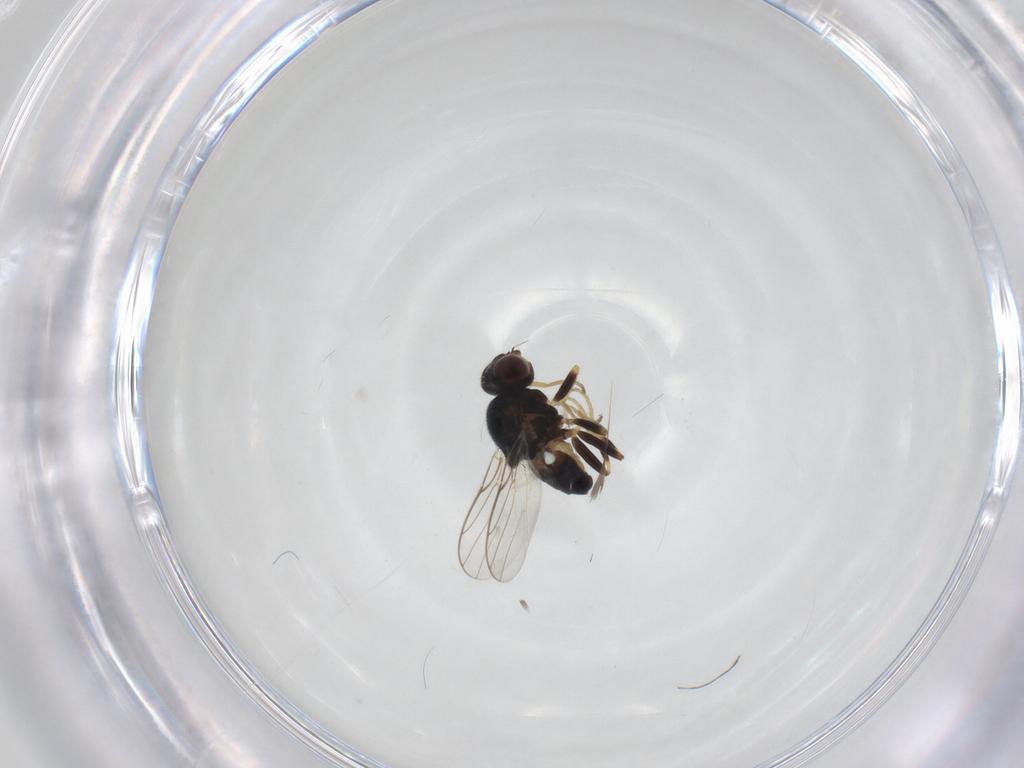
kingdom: Animalia
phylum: Arthropoda
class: Insecta
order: Diptera
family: Chloropidae
